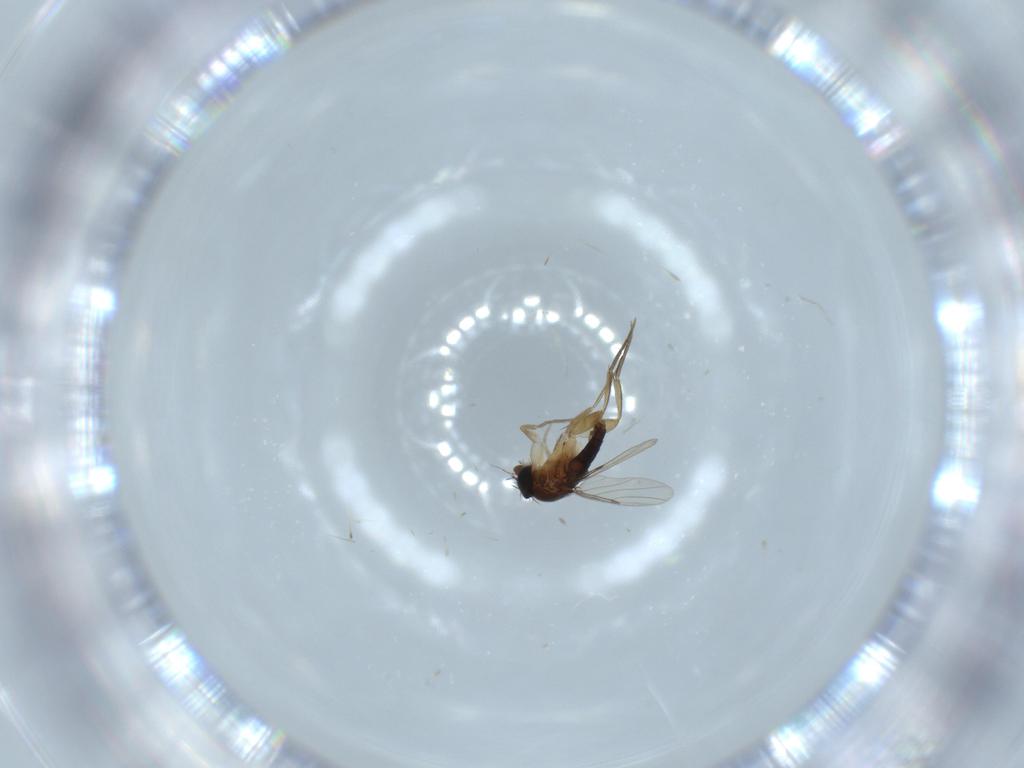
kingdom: Animalia
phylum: Arthropoda
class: Insecta
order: Diptera
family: Phoridae
